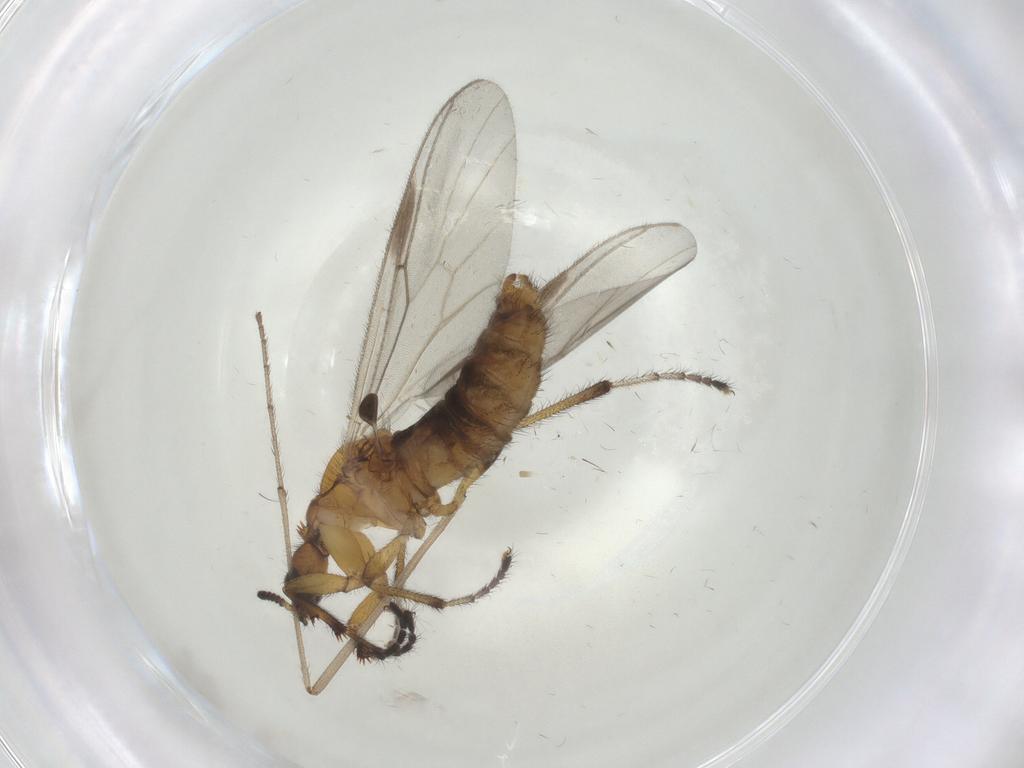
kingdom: Animalia
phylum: Arthropoda
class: Insecta
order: Diptera
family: Bibionidae
